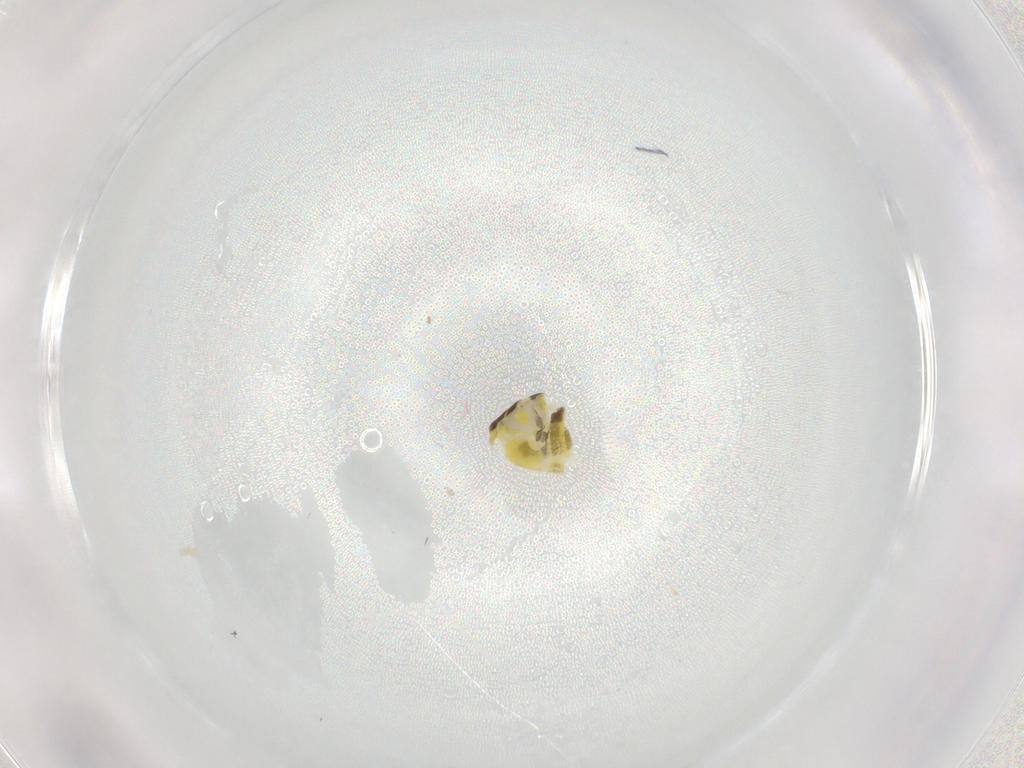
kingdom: Animalia
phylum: Arthropoda
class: Insecta
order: Diptera
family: Ceratopogonidae
